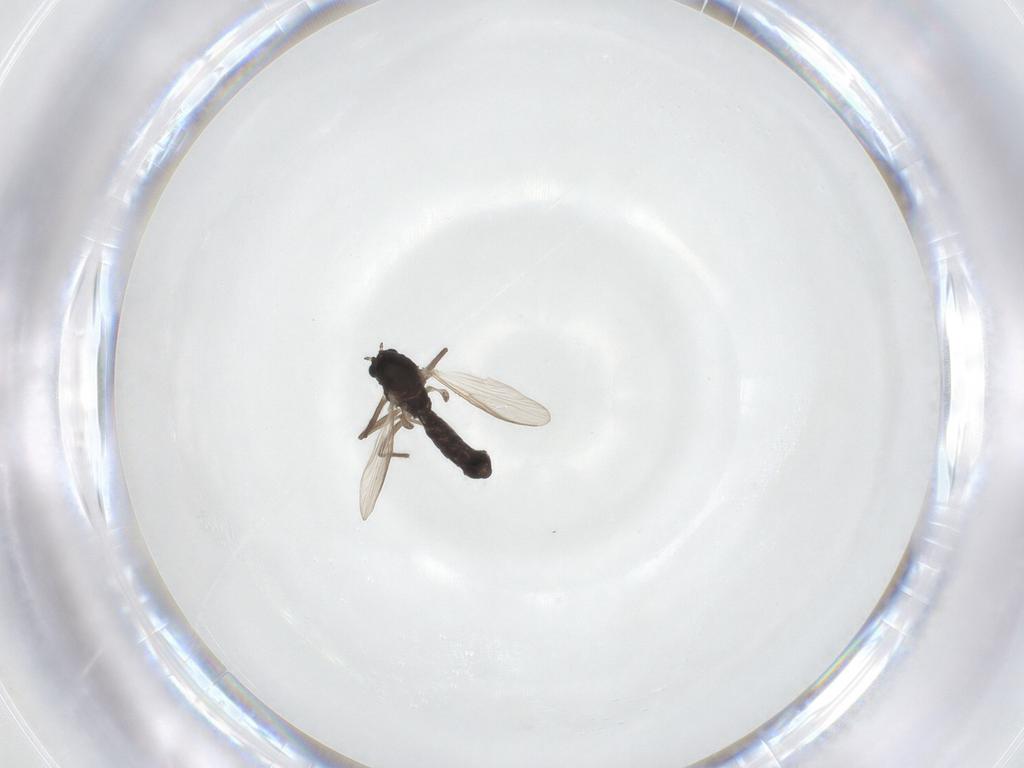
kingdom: Animalia
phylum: Arthropoda
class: Insecta
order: Diptera
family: Chironomidae
